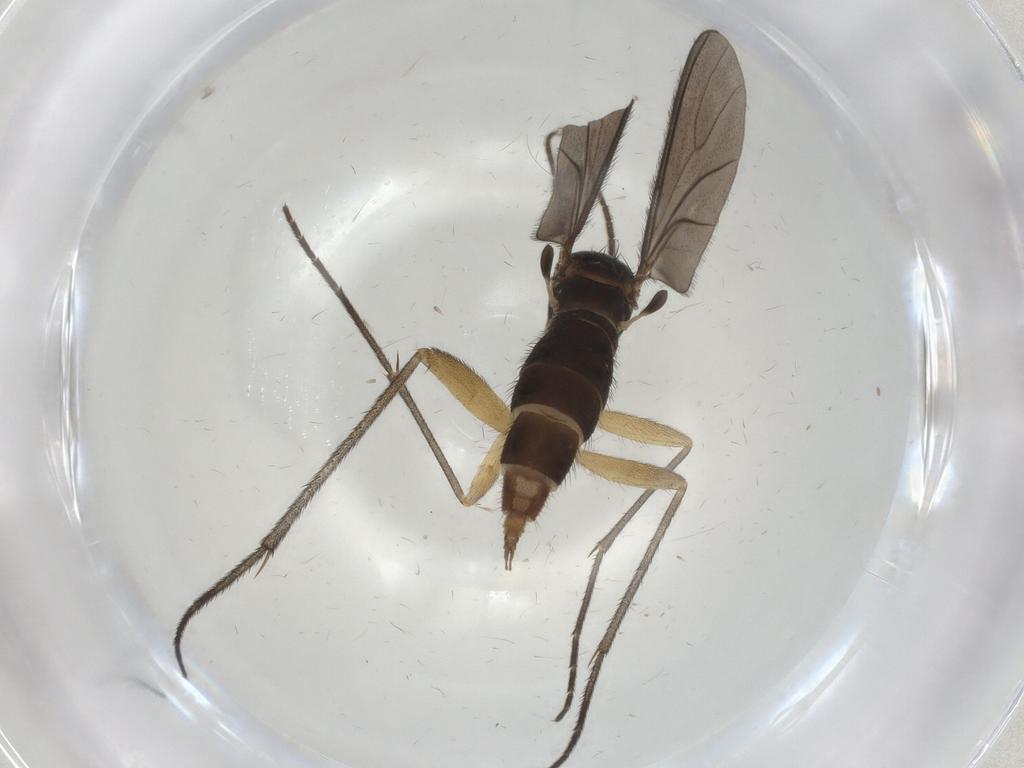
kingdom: Animalia
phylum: Arthropoda
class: Insecta
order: Diptera
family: Sciaridae
